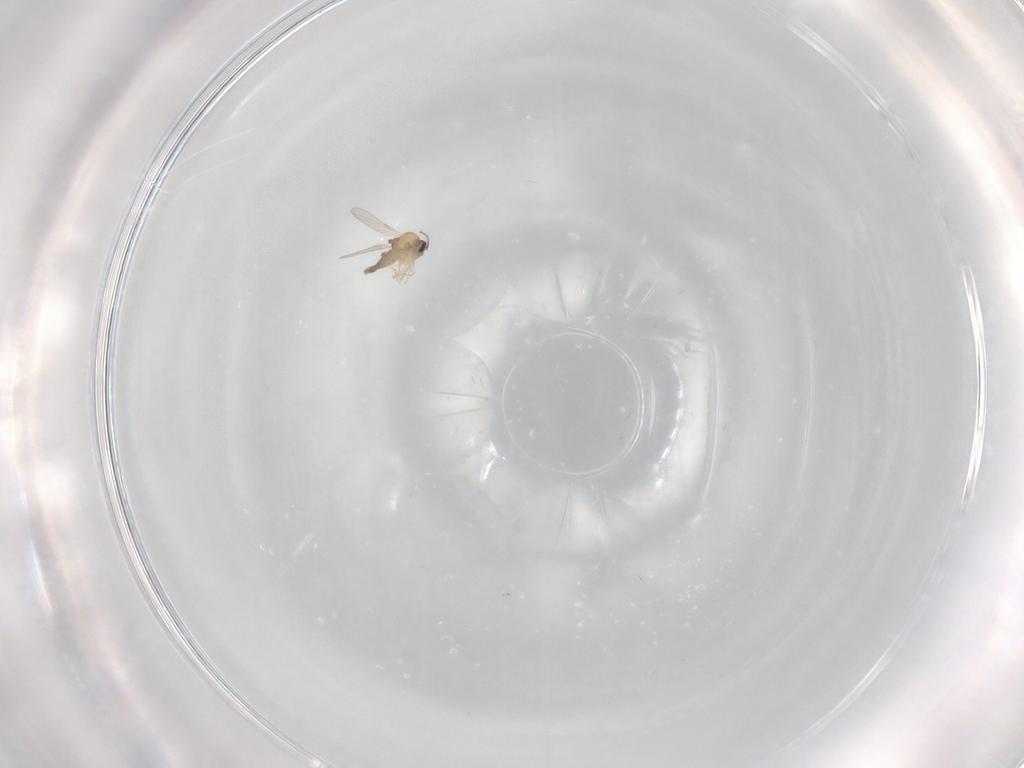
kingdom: Animalia
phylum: Arthropoda
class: Insecta
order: Diptera
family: Ceratopogonidae
